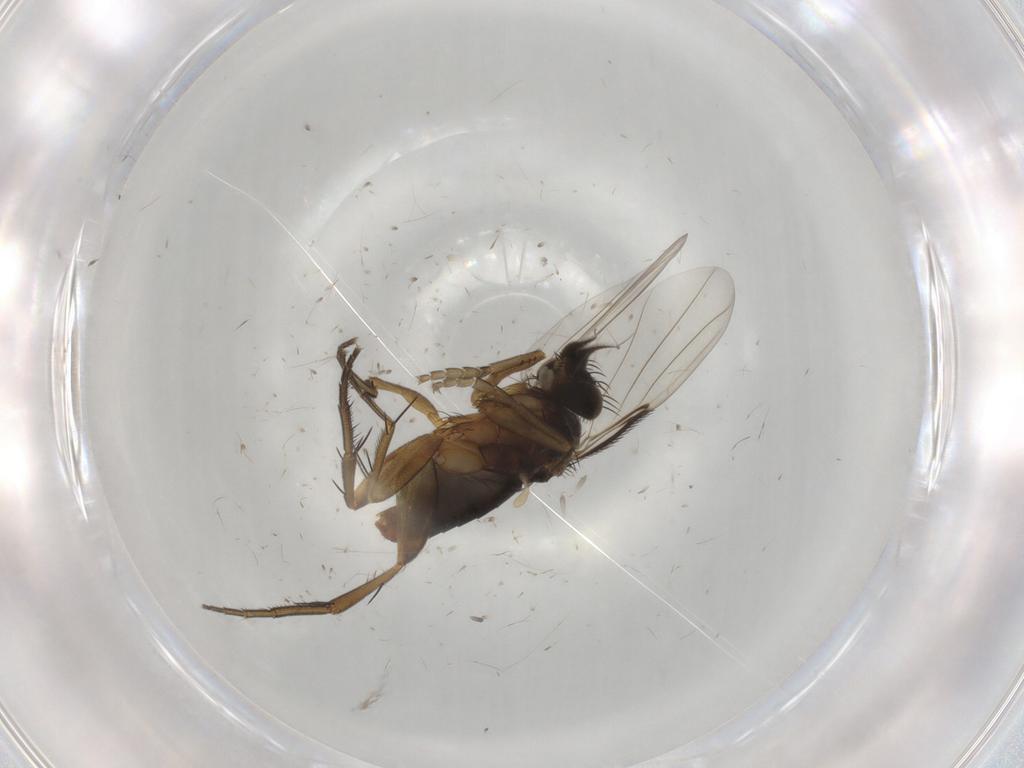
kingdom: Animalia
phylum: Arthropoda
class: Insecta
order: Diptera
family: Phoridae
